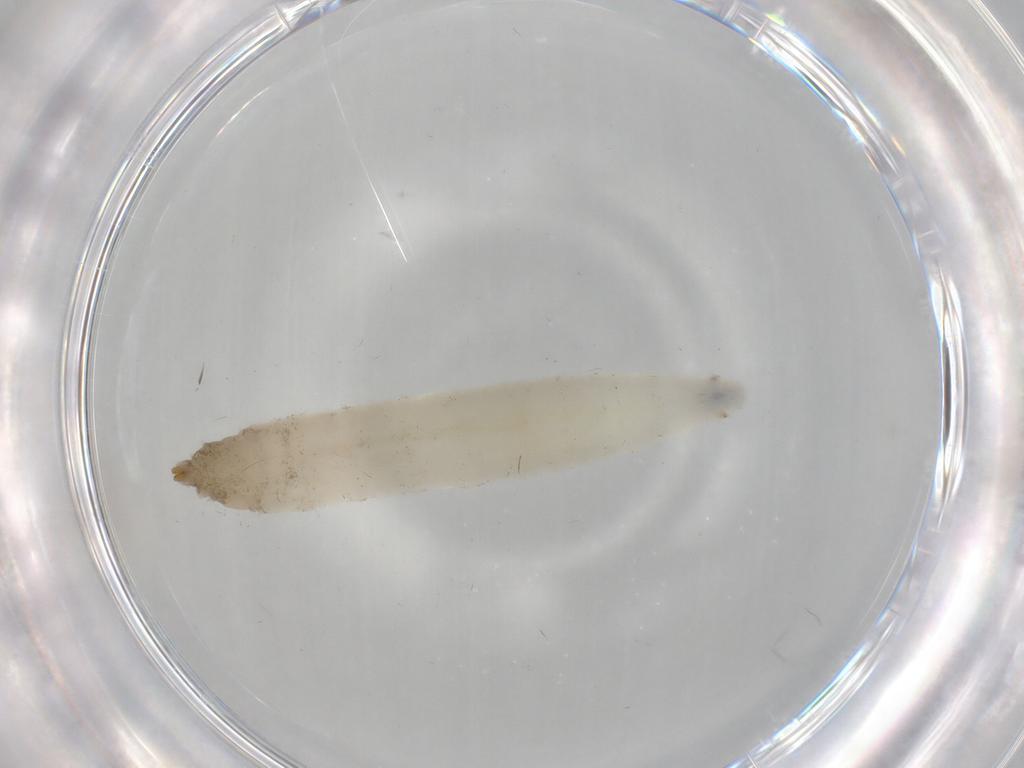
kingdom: Animalia
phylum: Arthropoda
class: Insecta
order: Diptera
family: Drosophilidae
